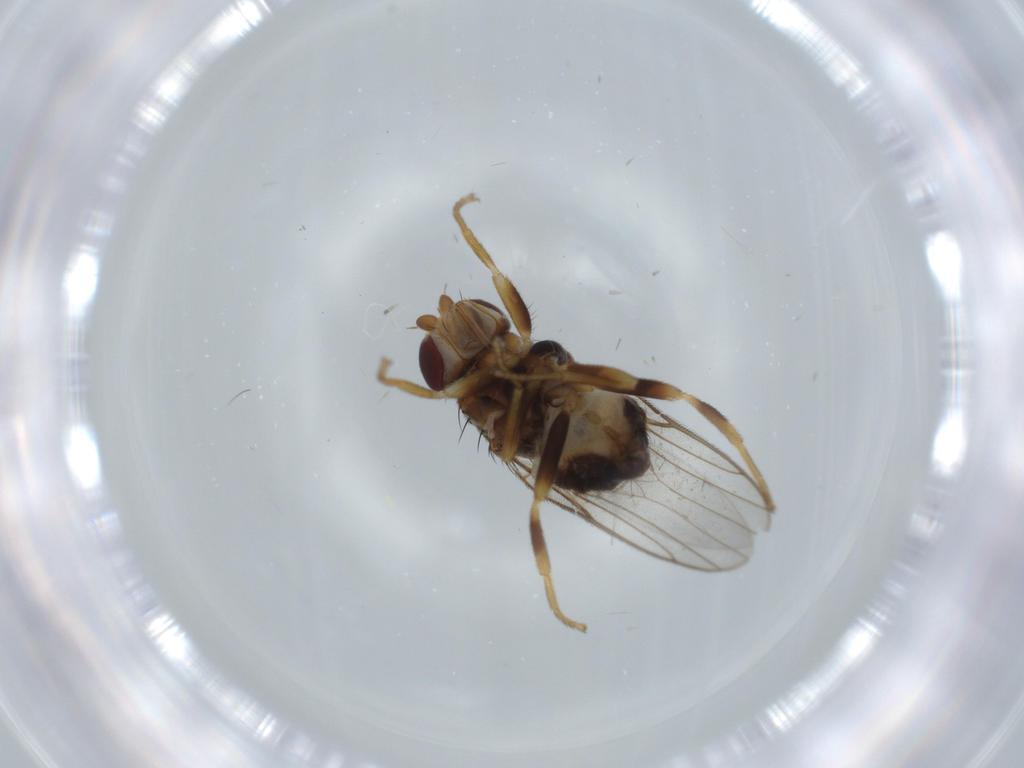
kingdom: Animalia
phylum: Arthropoda
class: Insecta
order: Diptera
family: Chloropidae
